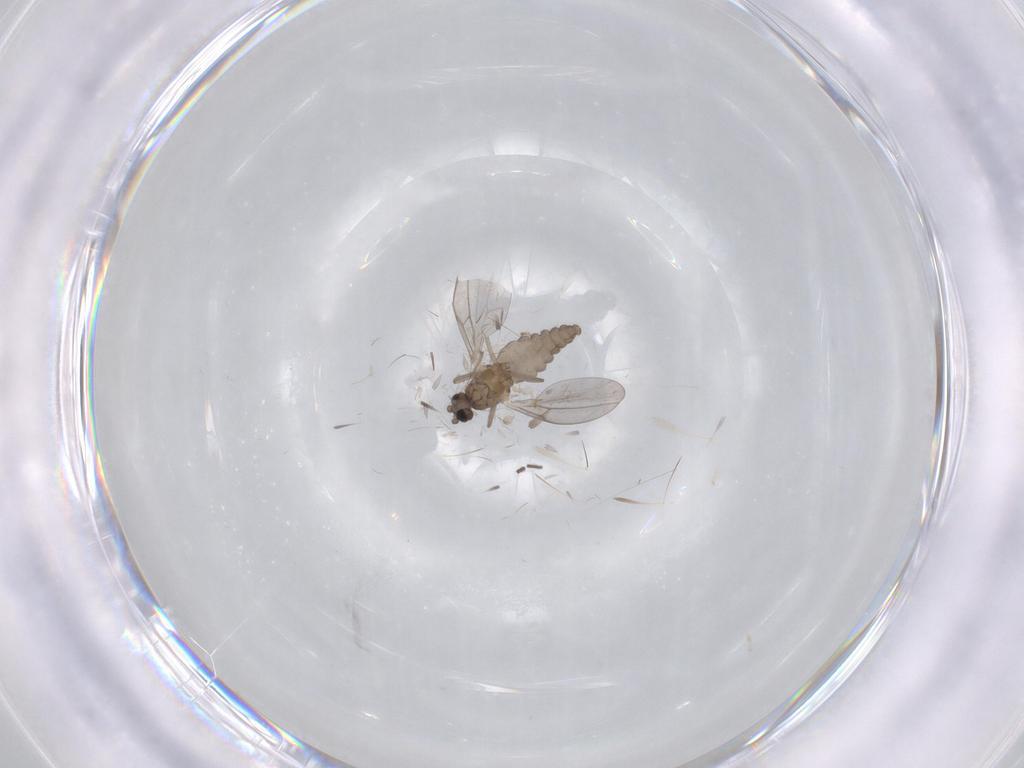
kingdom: Animalia
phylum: Arthropoda
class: Insecta
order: Diptera
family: Cecidomyiidae
